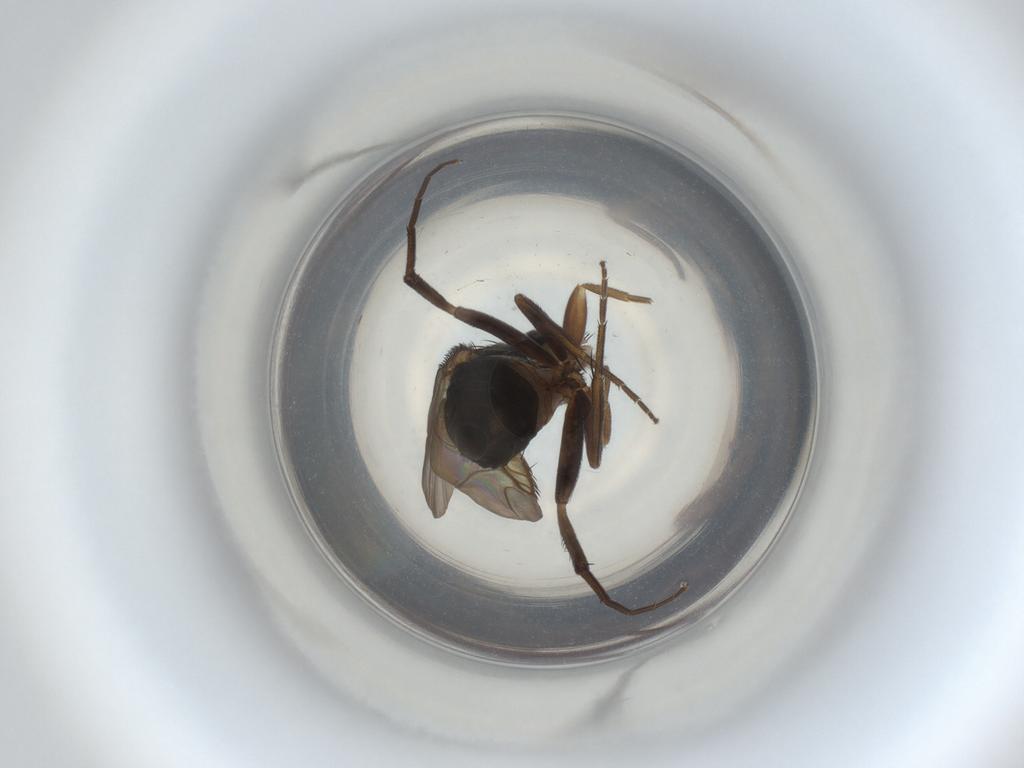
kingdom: Animalia
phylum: Arthropoda
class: Insecta
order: Diptera
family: Phoridae
